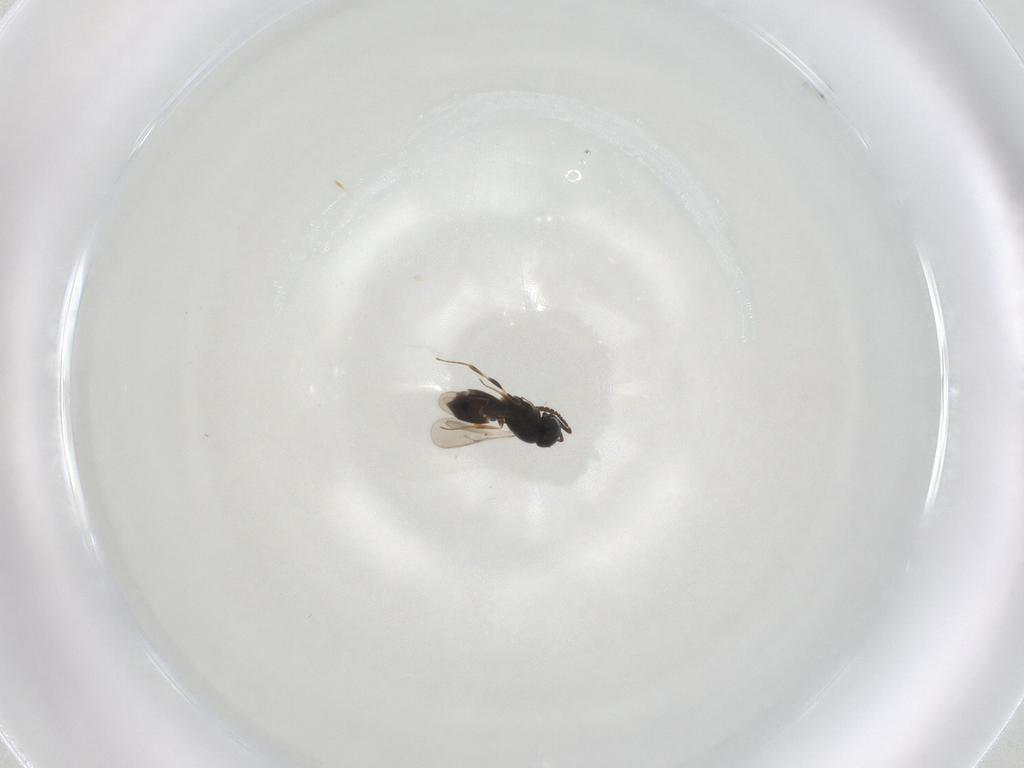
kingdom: Animalia
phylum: Arthropoda
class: Insecta
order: Hymenoptera
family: Scelionidae
